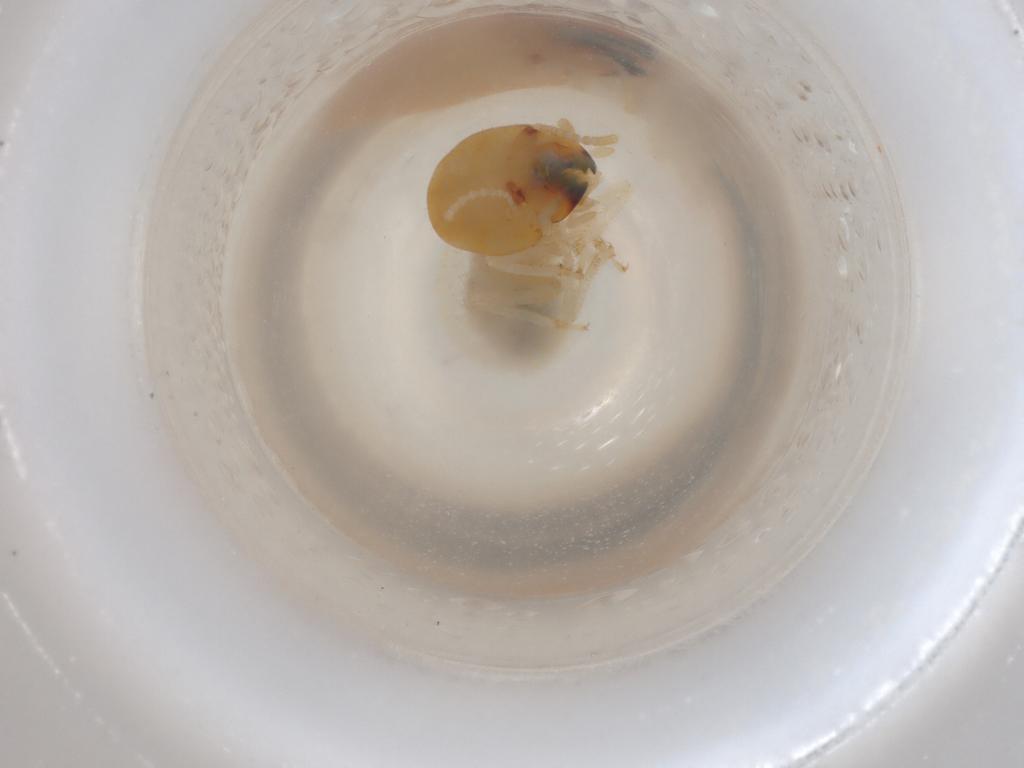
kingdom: Animalia
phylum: Arthropoda
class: Insecta
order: Blattodea
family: Termitidae
